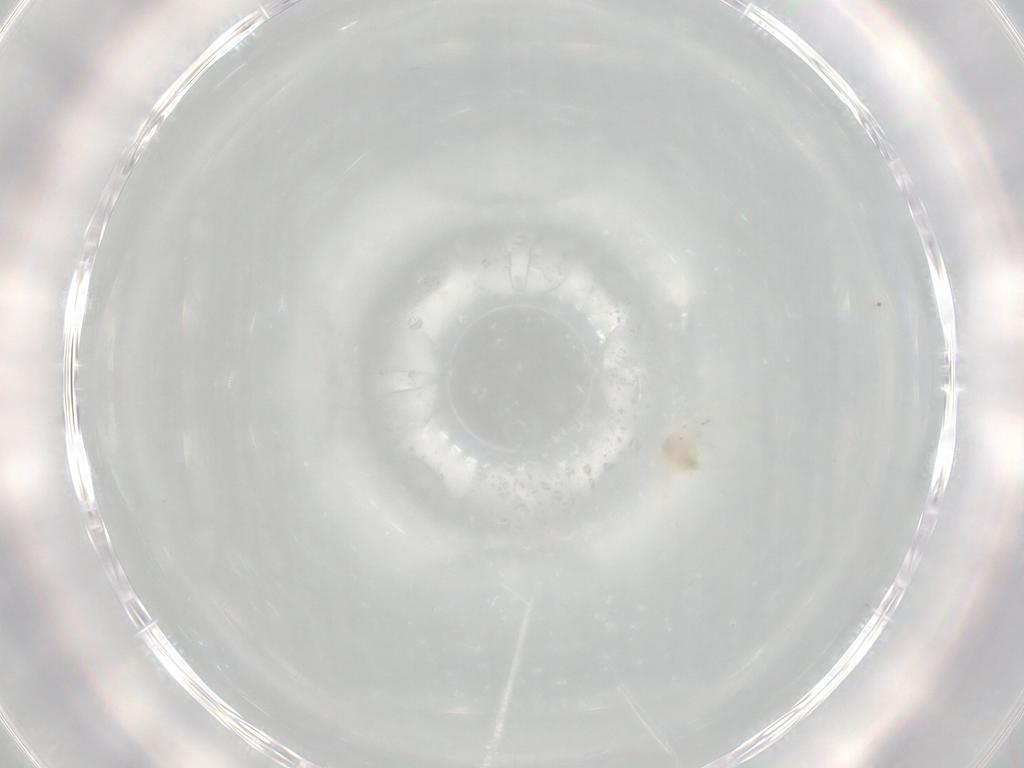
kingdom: Animalia
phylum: Arthropoda
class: Insecta
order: Hemiptera
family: Aleyrodidae
